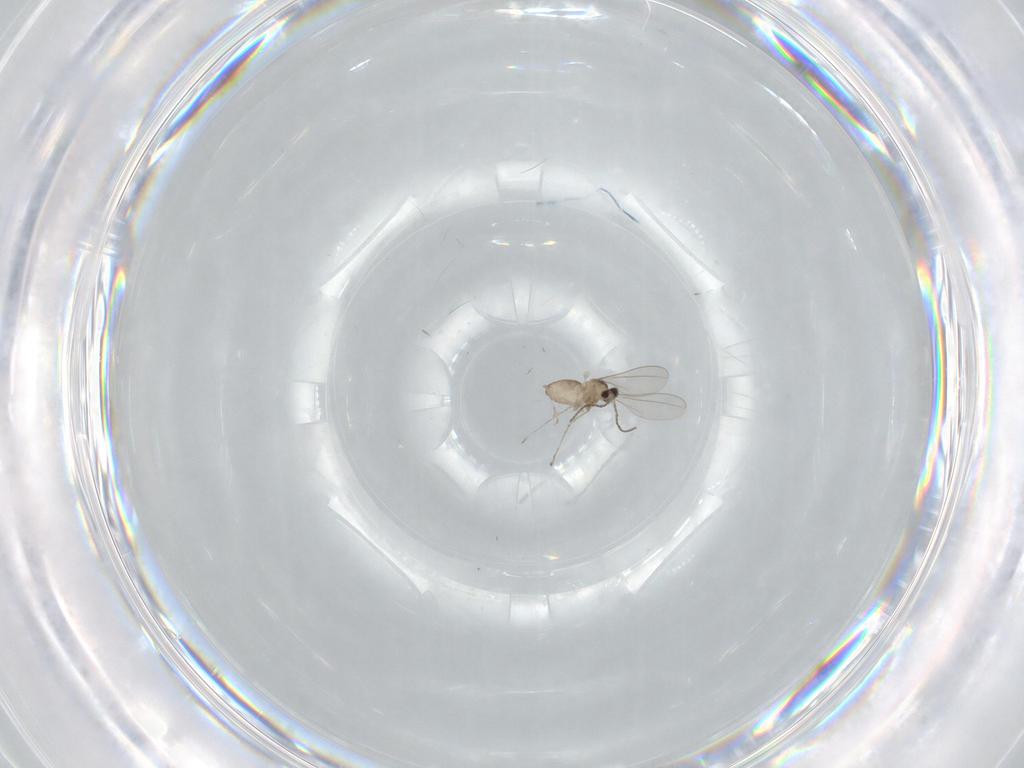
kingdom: Animalia
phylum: Arthropoda
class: Insecta
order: Diptera
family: Cecidomyiidae
